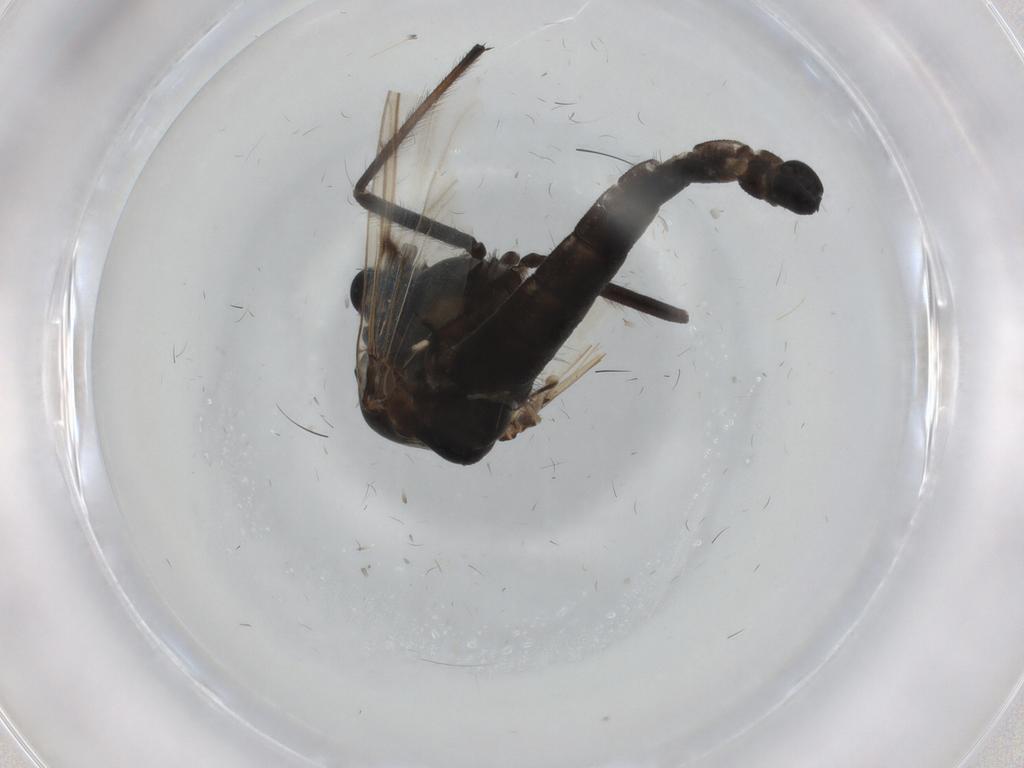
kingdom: Animalia
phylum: Arthropoda
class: Insecta
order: Diptera
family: Chironomidae
